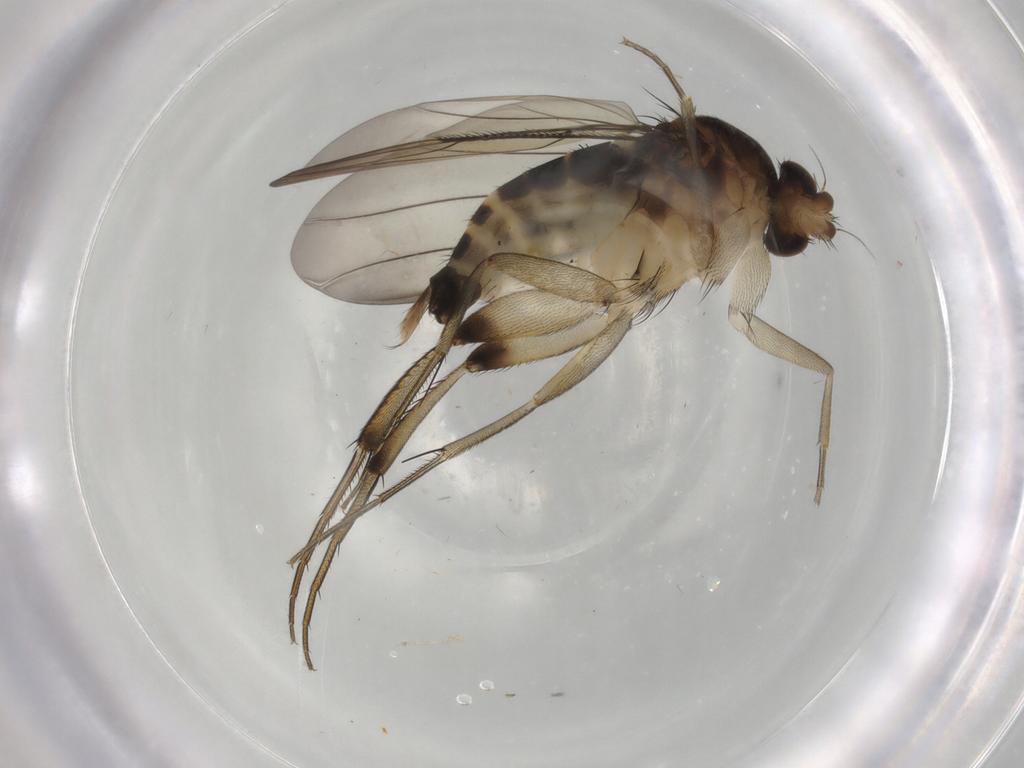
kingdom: Animalia
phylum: Arthropoda
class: Insecta
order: Diptera
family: Phoridae
